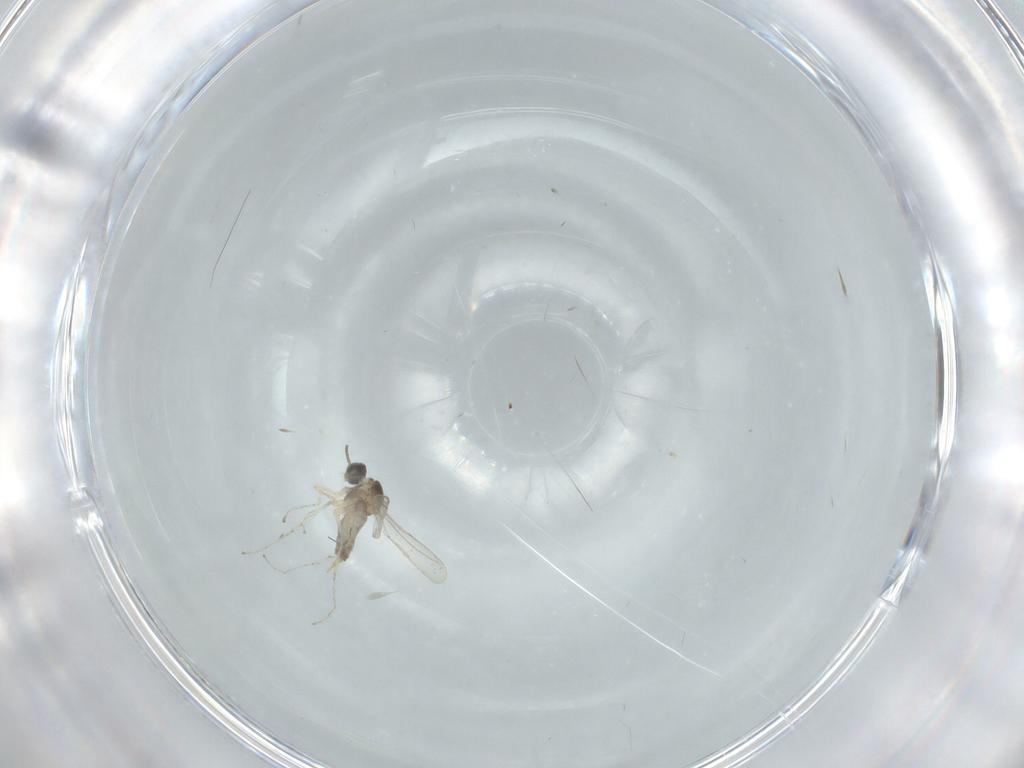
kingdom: Animalia
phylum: Arthropoda
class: Insecta
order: Diptera
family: Cecidomyiidae
